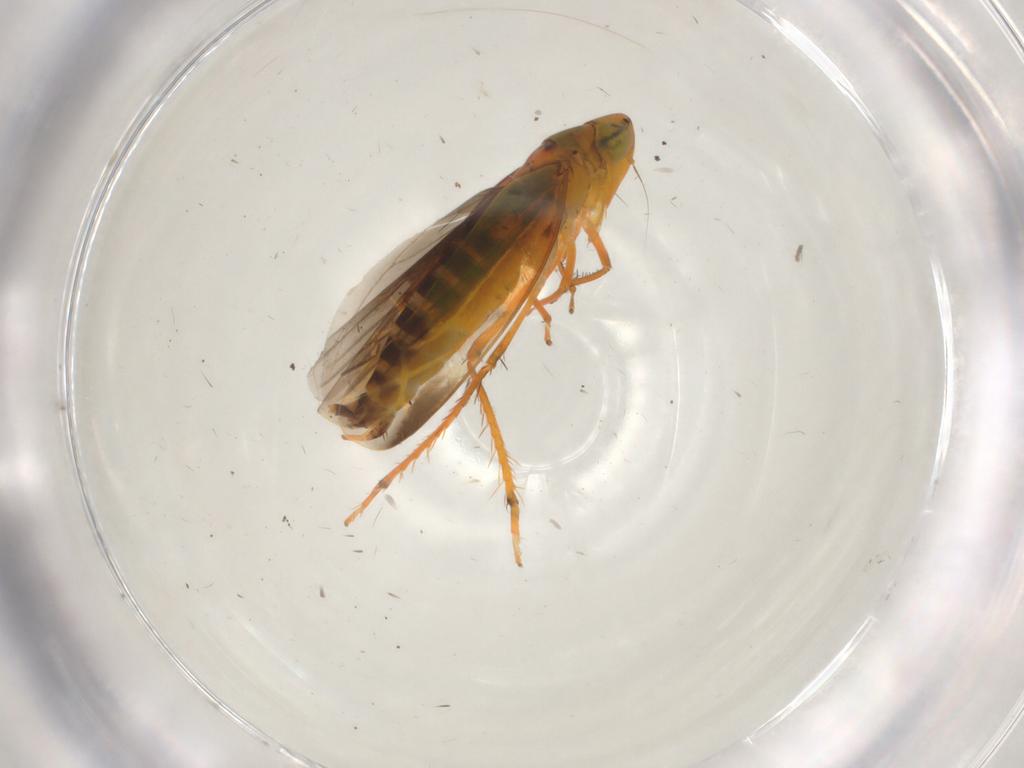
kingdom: Animalia
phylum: Arthropoda
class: Insecta
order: Hemiptera
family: Cicadellidae
